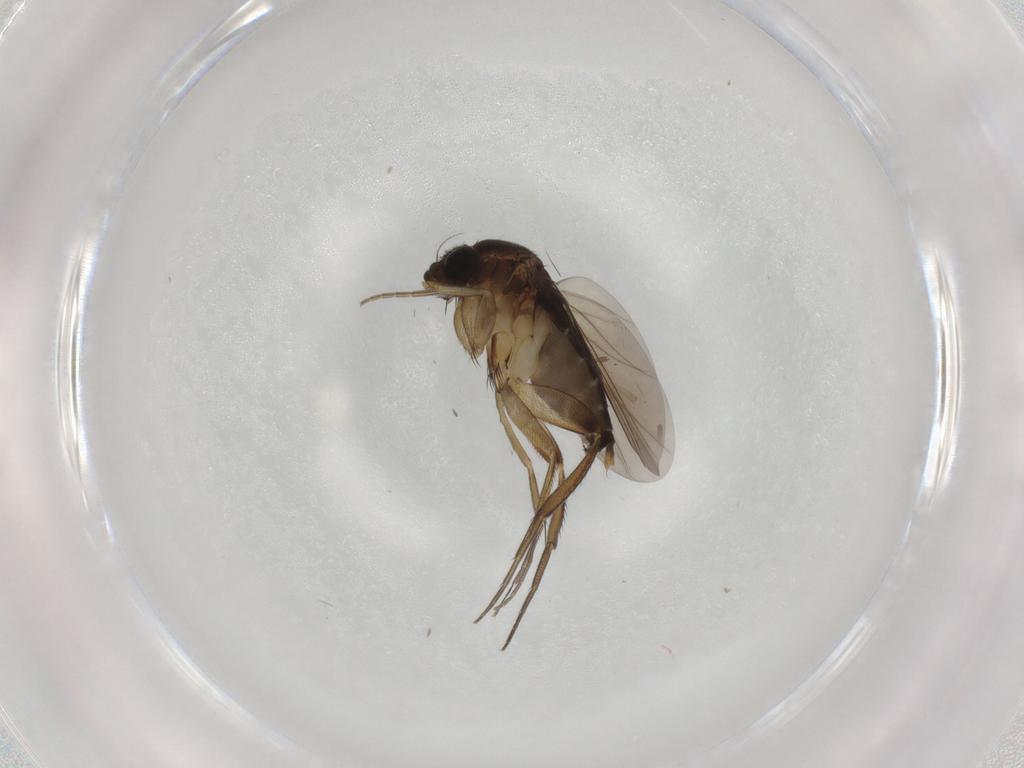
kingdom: Animalia
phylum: Arthropoda
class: Insecta
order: Diptera
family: Phoridae
